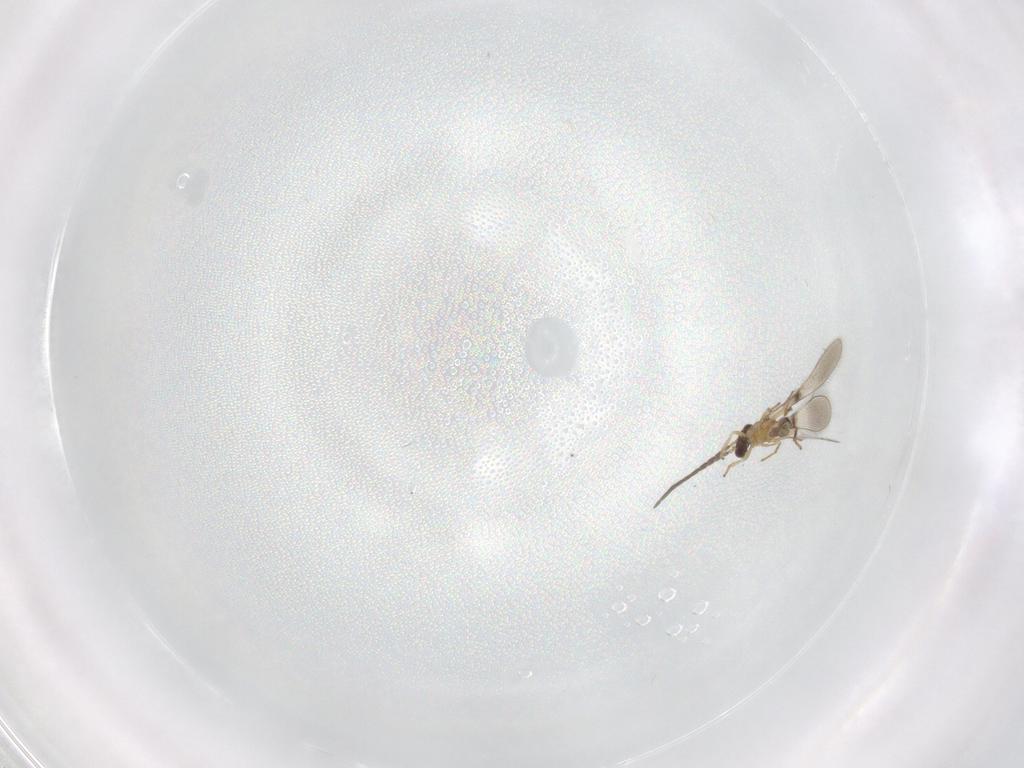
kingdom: Animalia
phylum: Arthropoda
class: Insecta
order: Hymenoptera
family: Mymaridae
